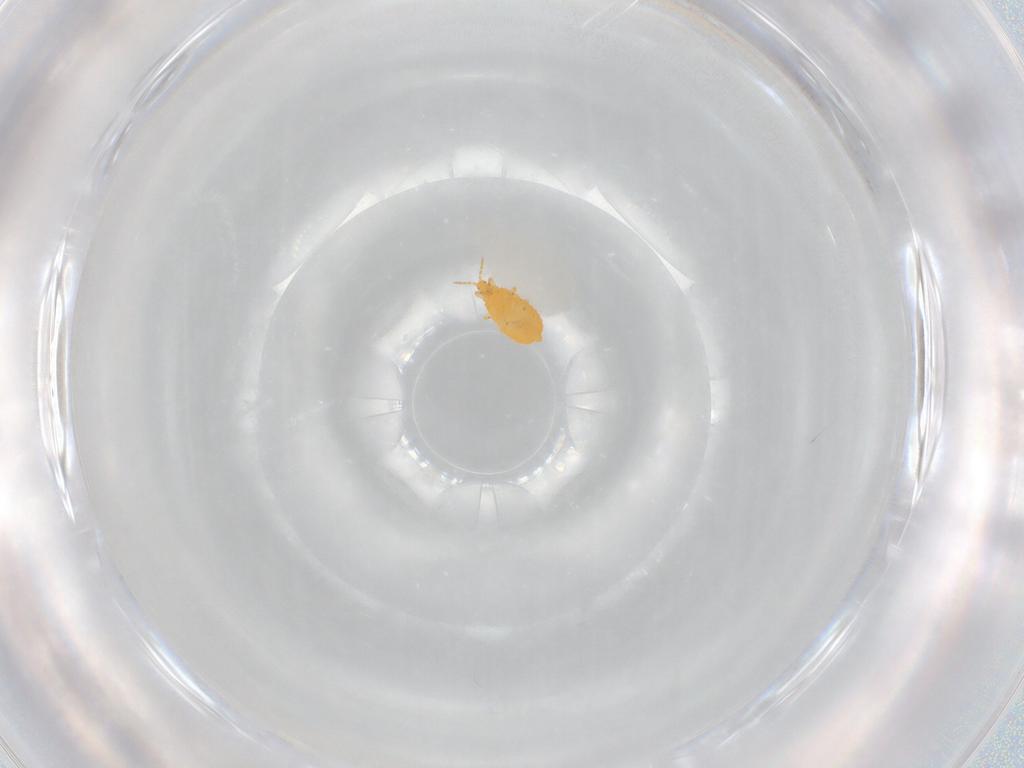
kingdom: Animalia
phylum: Arthropoda
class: Insecta
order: Thysanoptera
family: Heterothripidae
